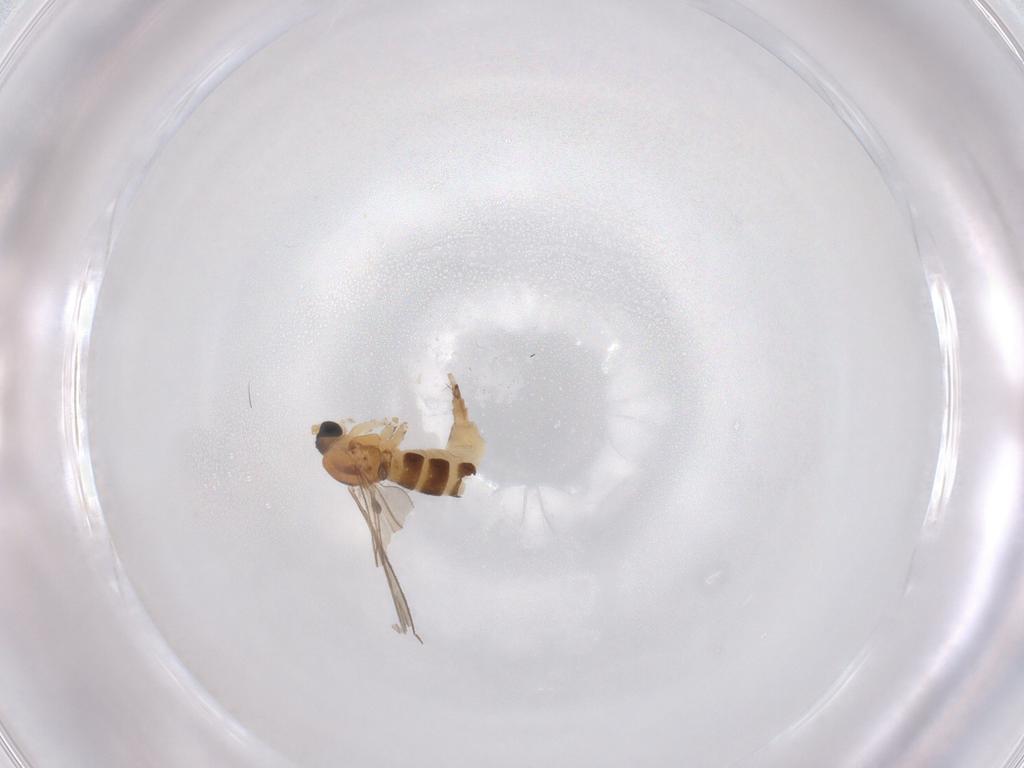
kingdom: Animalia
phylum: Arthropoda
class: Insecta
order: Diptera
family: Sciaridae
